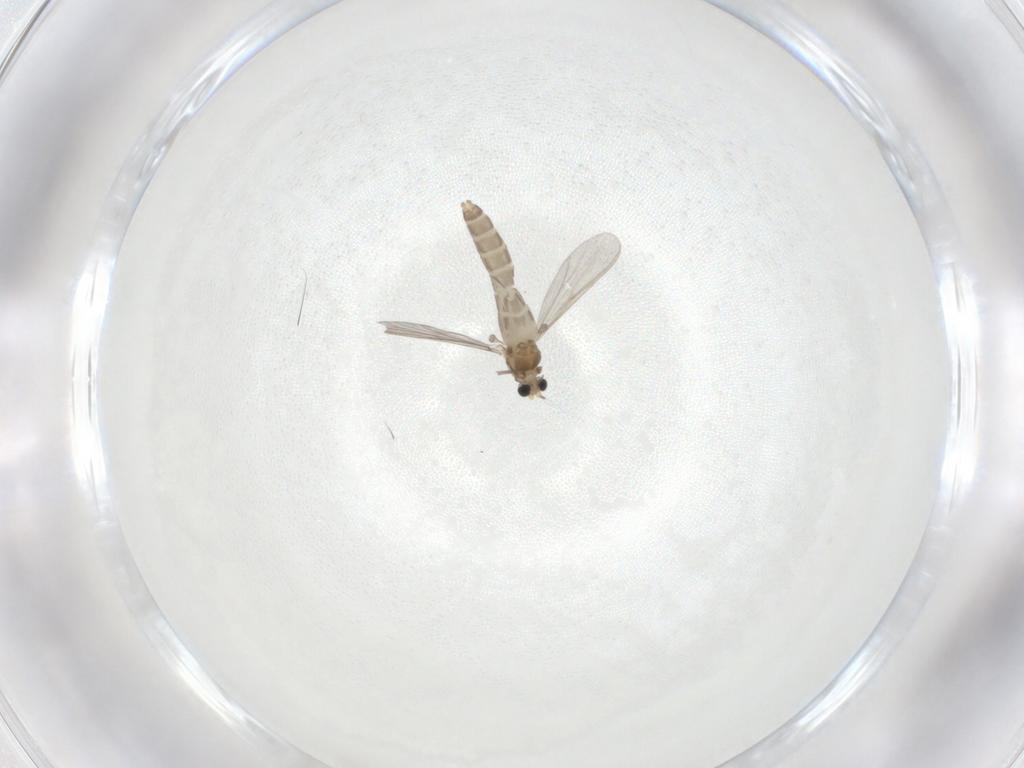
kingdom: Animalia
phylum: Arthropoda
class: Insecta
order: Diptera
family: Chironomidae
